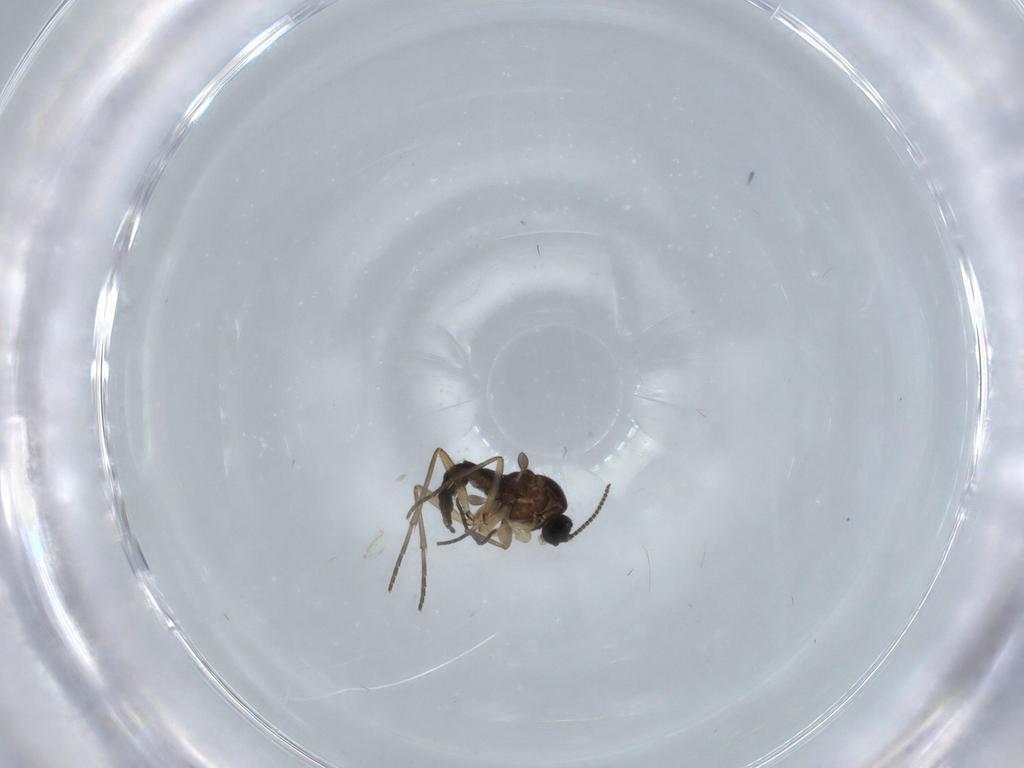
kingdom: Animalia
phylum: Arthropoda
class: Insecta
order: Diptera
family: Sciaridae
